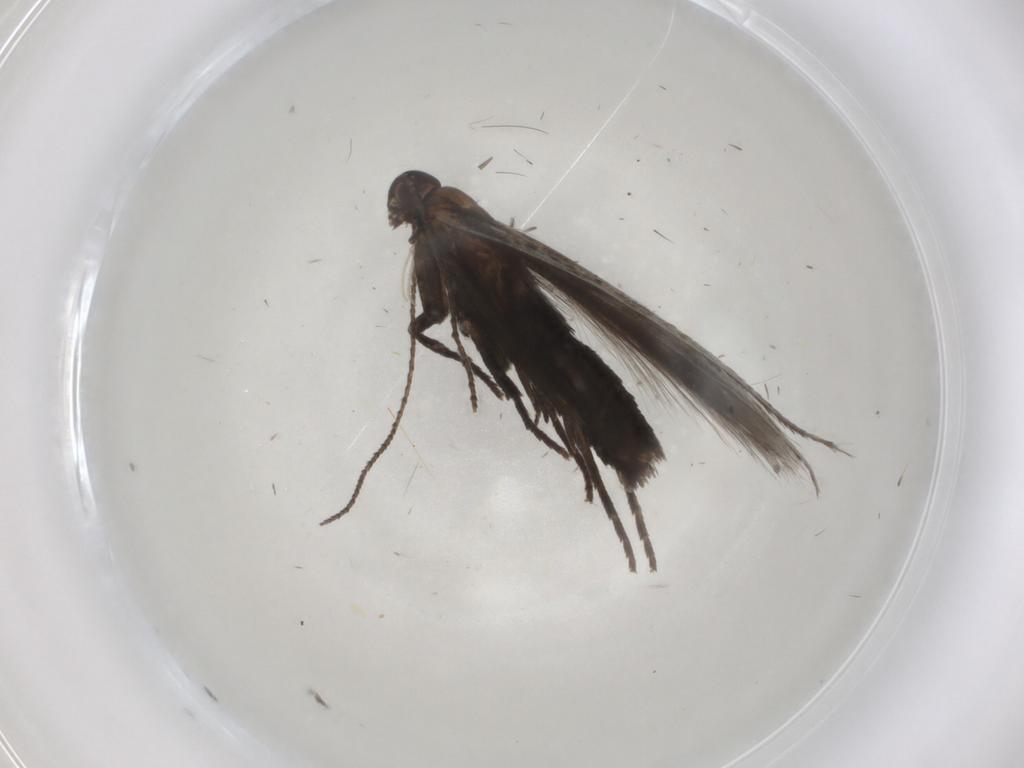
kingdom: Animalia
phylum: Arthropoda
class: Insecta
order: Lepidoptera
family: Gelechiidae
